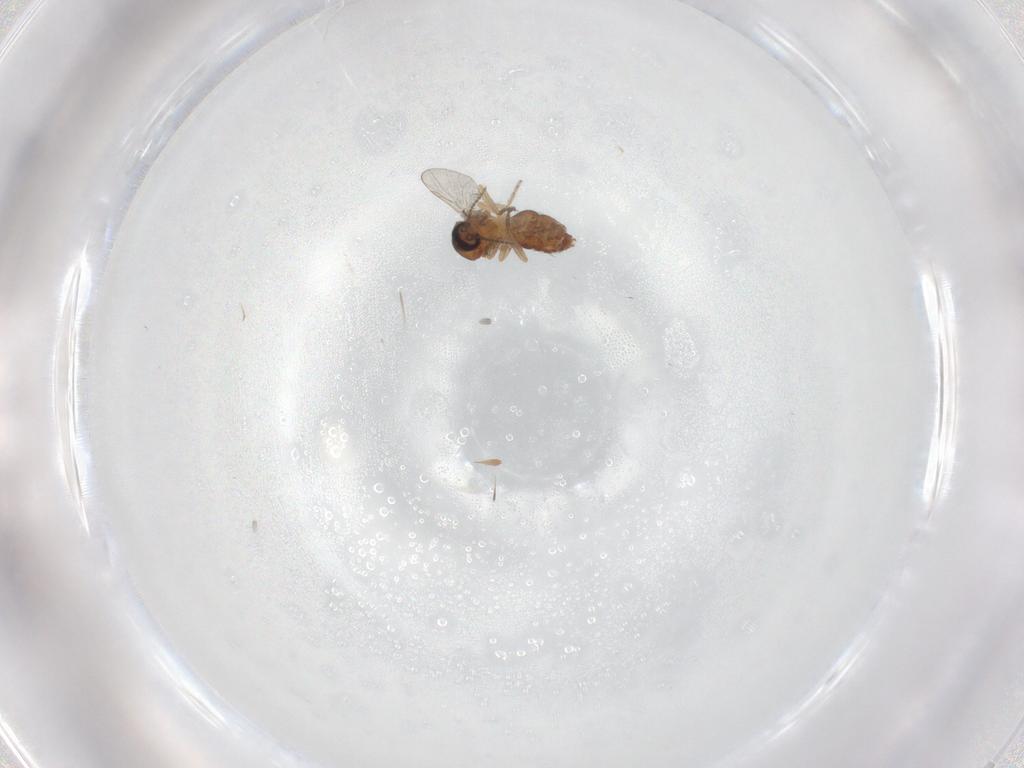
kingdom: Animalia
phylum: Arthropoda
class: Insecta
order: Diptera
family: Ceratopogonidae
